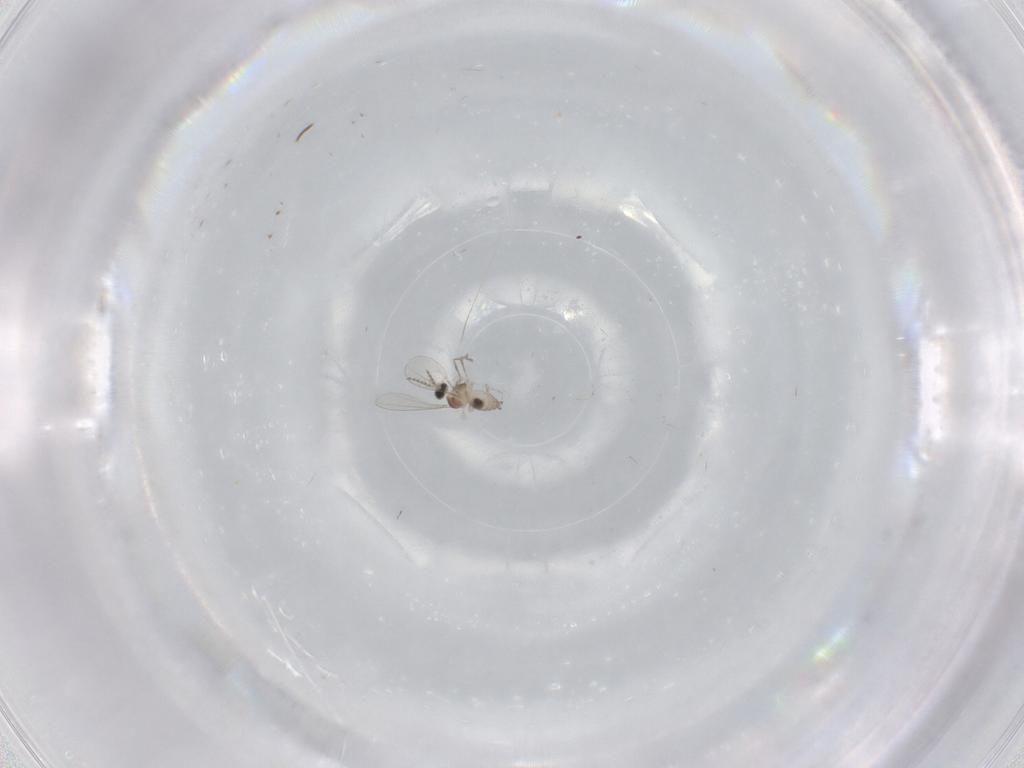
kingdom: Animalia
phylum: Arthropoda
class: Insecta
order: Diptera
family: Cecidomyiidae
